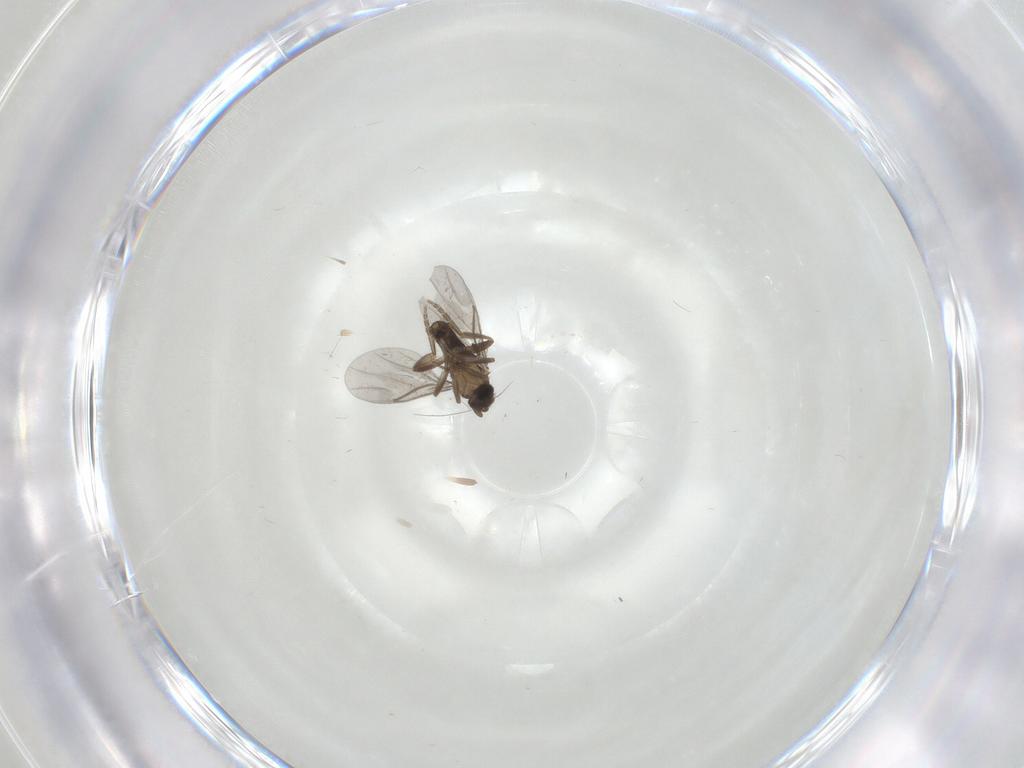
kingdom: Animalia
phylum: Arthropoda
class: Insecta
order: Diptera
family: Cecidomyiidae
